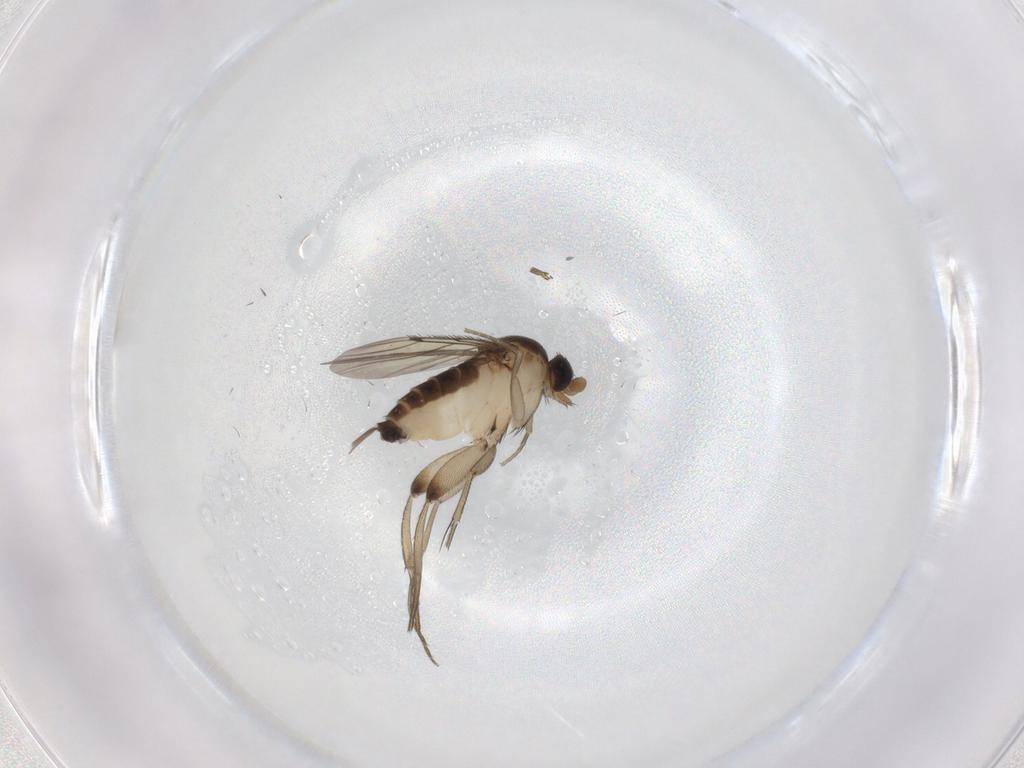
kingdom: Animalia
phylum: Arthropoda
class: Insecta
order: Diptera
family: Phoridae
